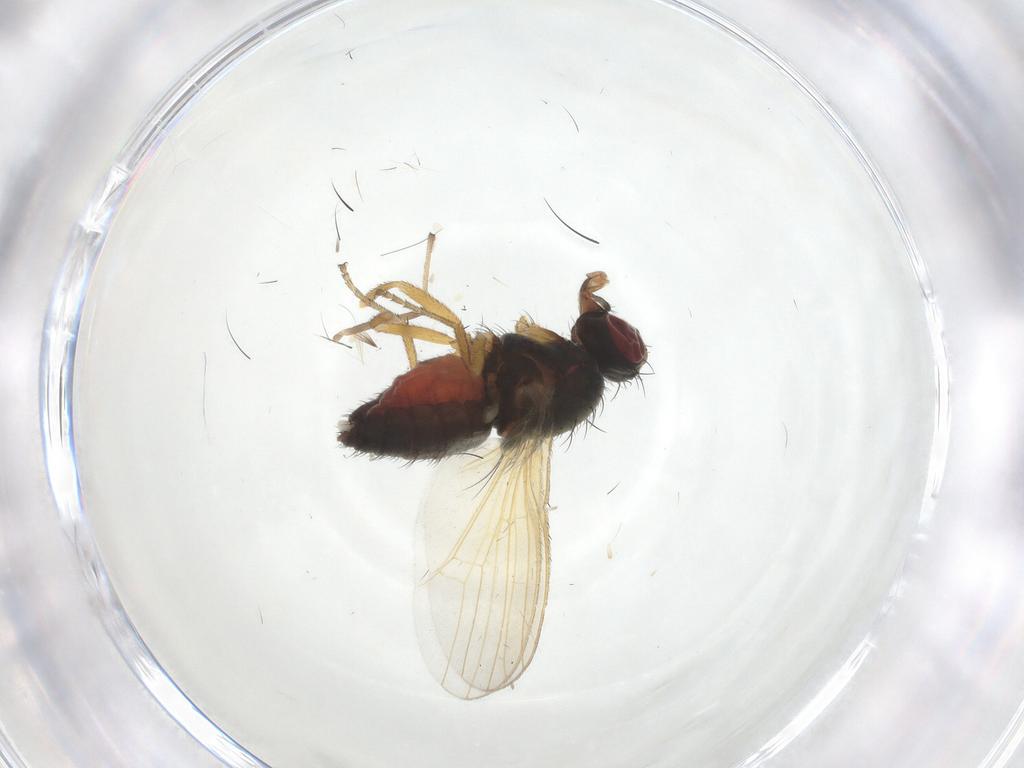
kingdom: Animalia
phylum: Arthropoda
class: Insecta
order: Diptera
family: Heleomyzidae
